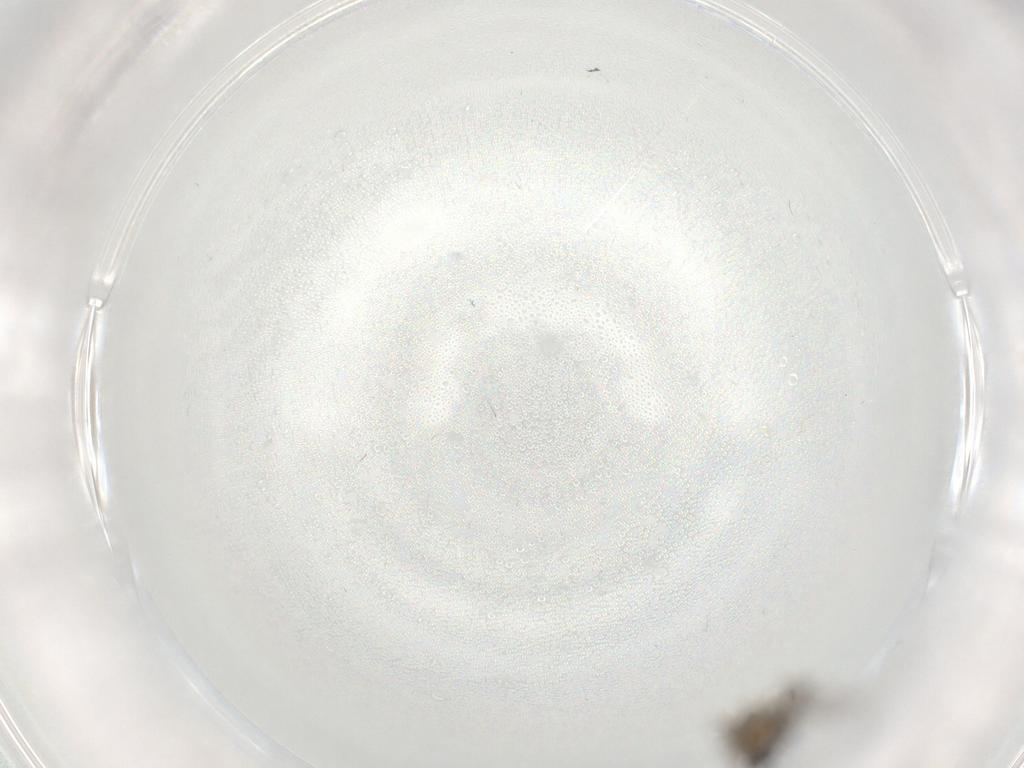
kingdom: Animalia
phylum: Arthropoda
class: Insecta
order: Diptera
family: Sciaridae
